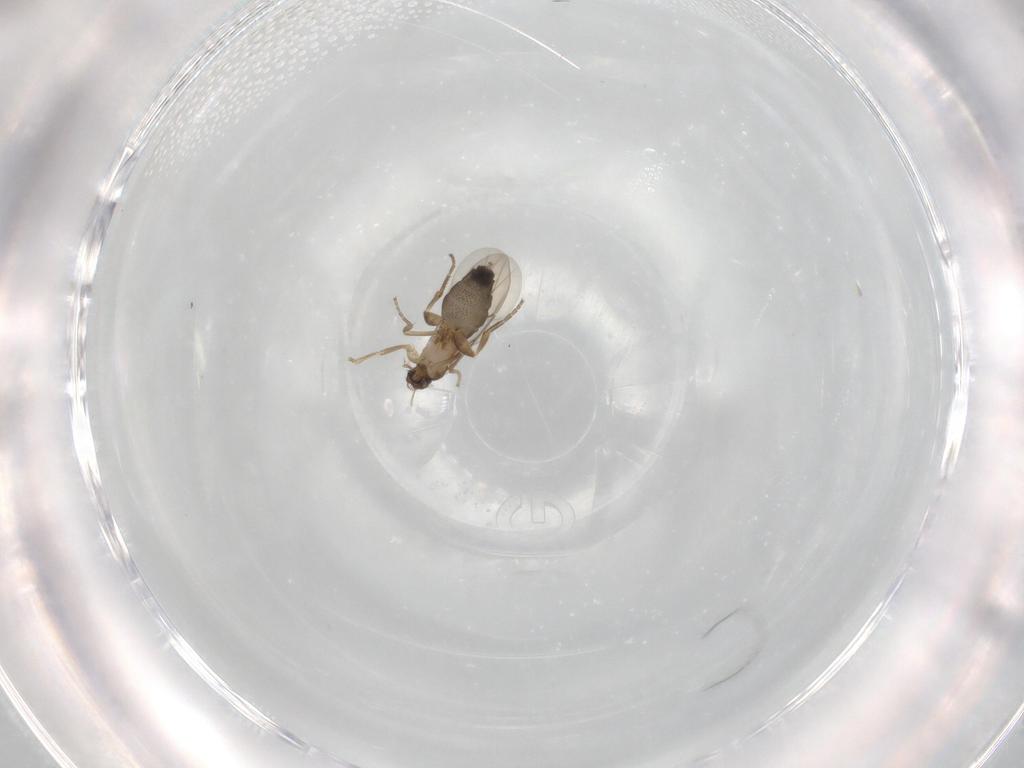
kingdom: Animalia
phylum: Arthropoda
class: Insecta
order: Diptera
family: Phoridae
